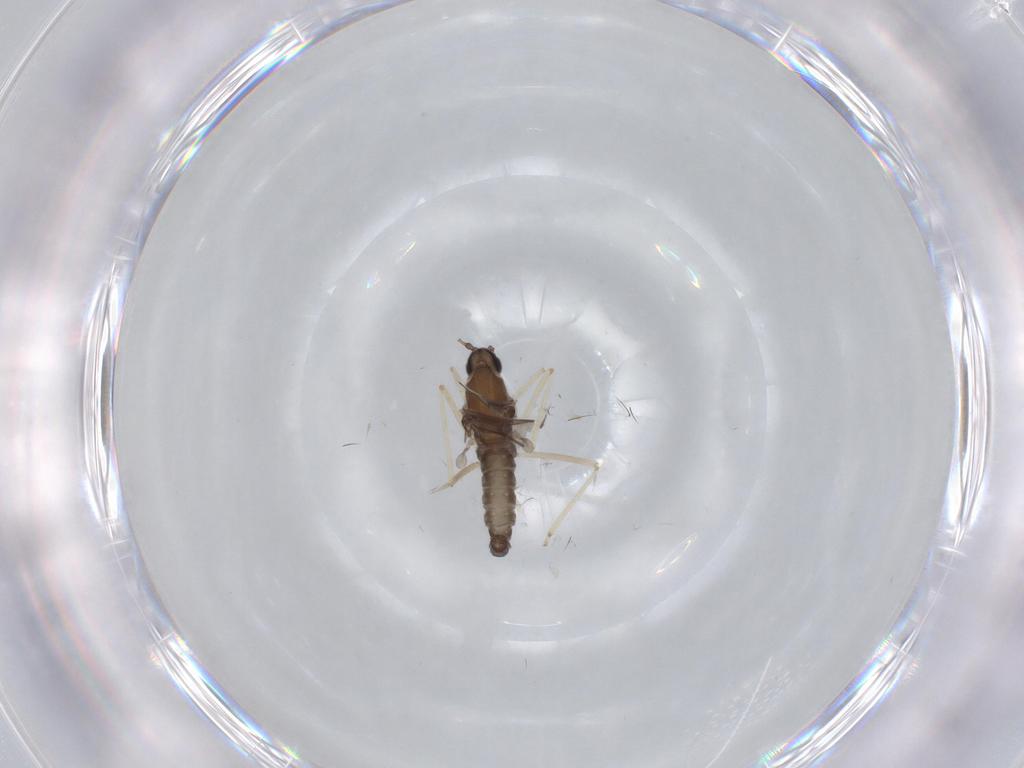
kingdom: Animalia
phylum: Arthropoda
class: Insecta
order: Diptera
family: Cecidomyiidae
